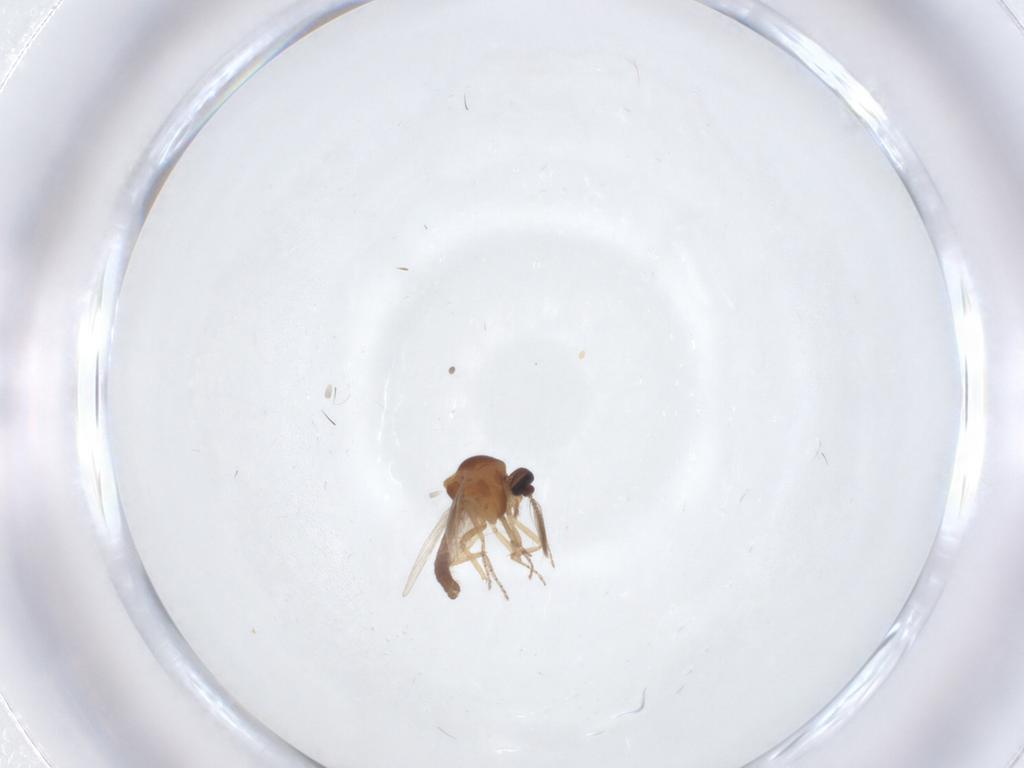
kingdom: Animalia
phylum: Arthropoda
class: Insecta
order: Diptera
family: Ceratopogonidae
